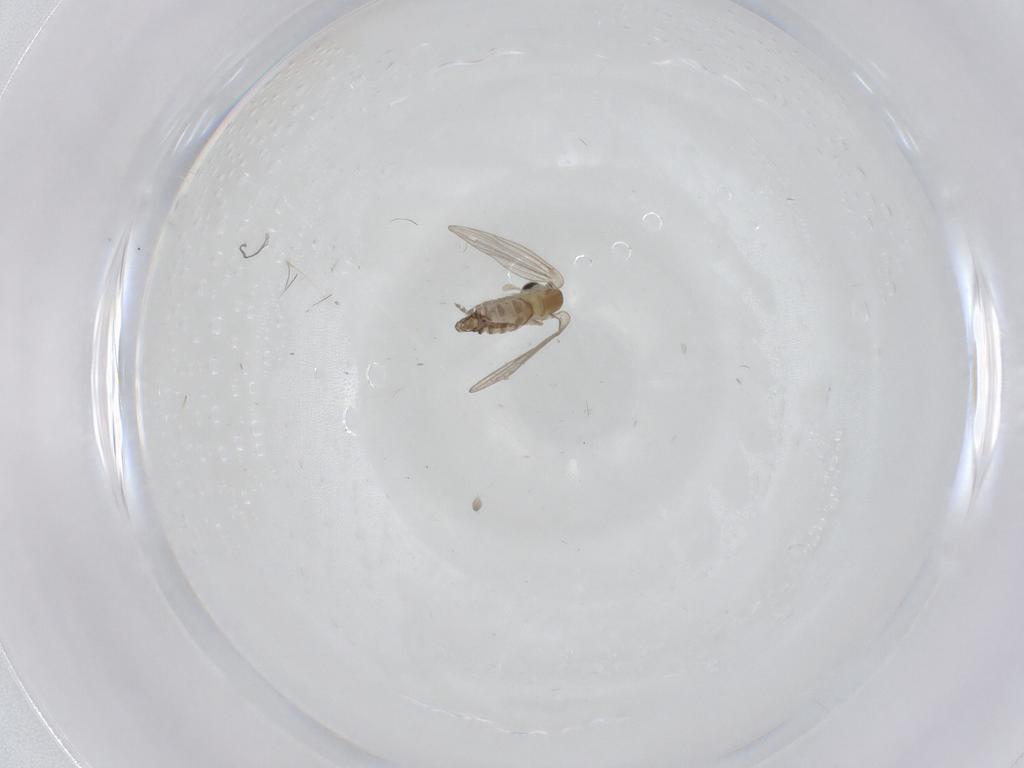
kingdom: Animalia
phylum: Arthropoda
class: Insecta
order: Diptera
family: Psychodidae
